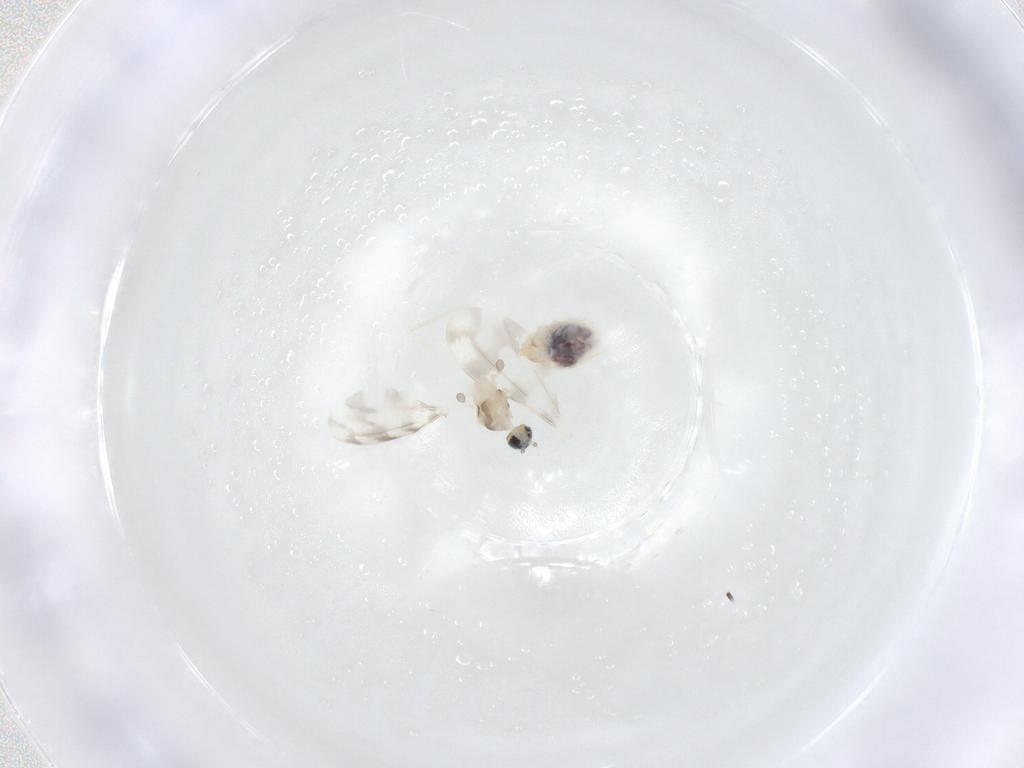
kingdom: Animalia
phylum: Arthropoda
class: Insecta
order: Diptera
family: Cecidomyiidae
